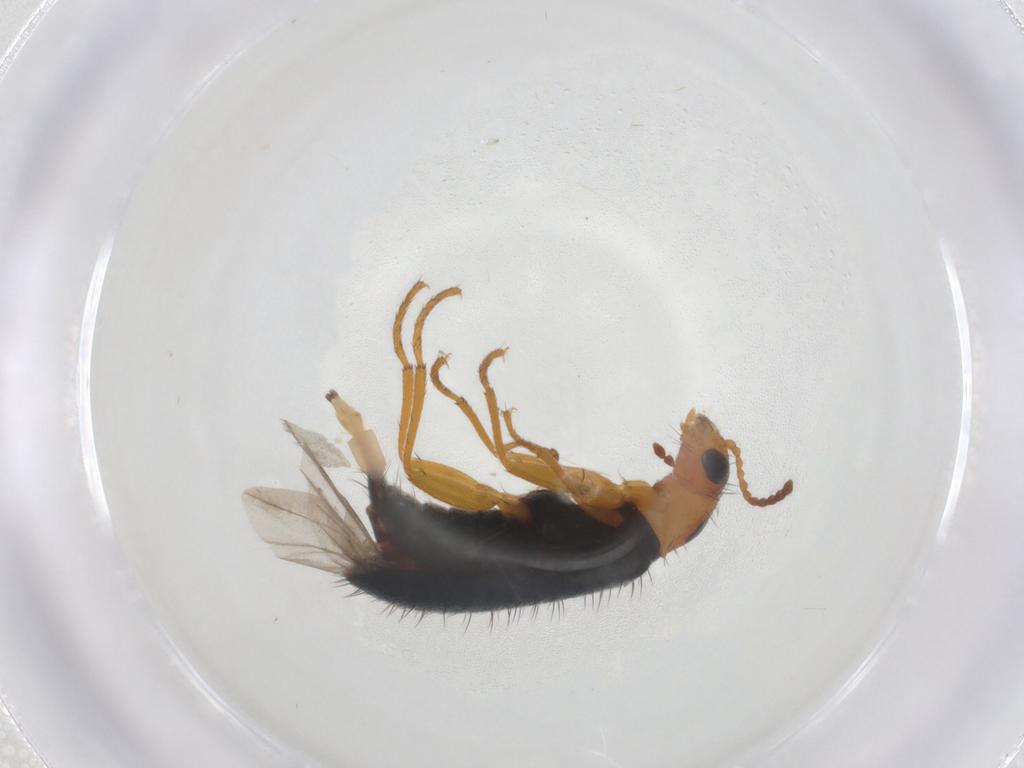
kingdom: Animalia
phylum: Arthropoda
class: Insecta
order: Coleoptera
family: Melyridae
